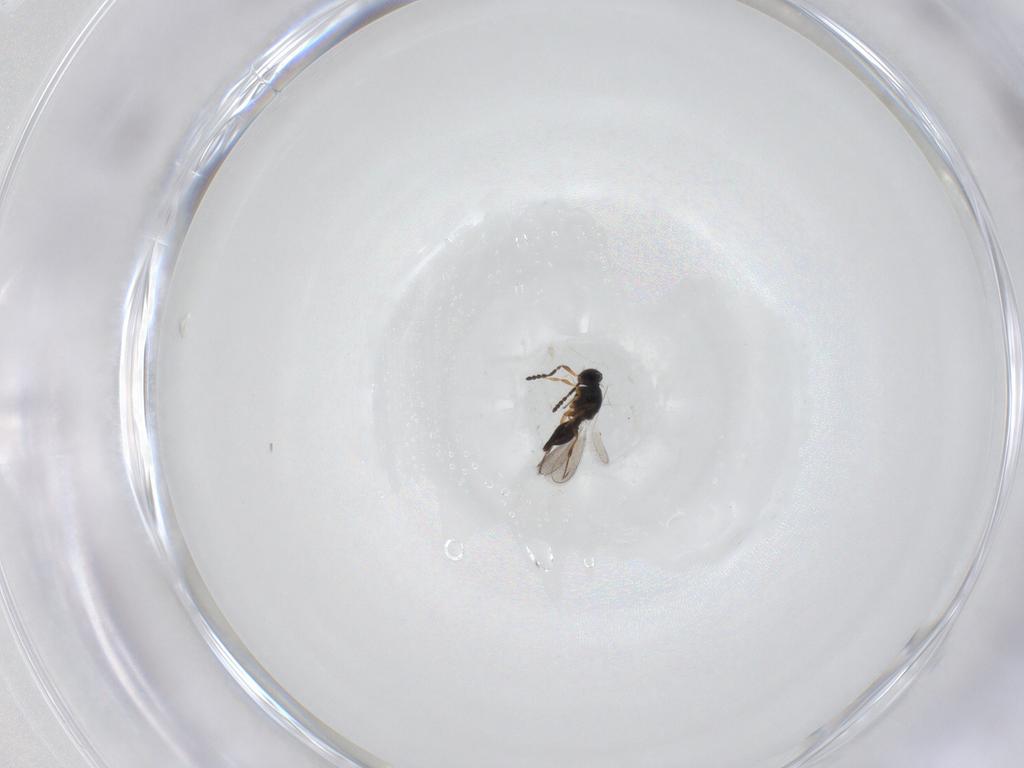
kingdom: Animalia
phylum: Arthropoda
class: Insecta
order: Hymenoptera
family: Platygastridae
